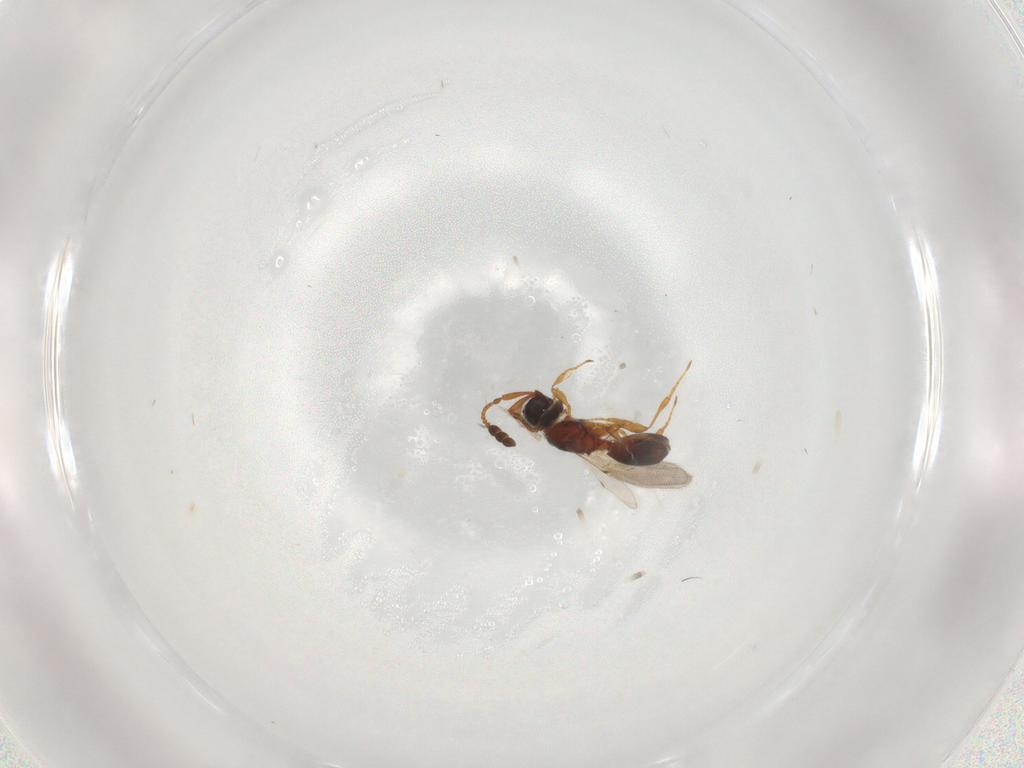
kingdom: Animalia
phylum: Arthropoda
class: Insecta
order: Hymenoptera
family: Diapriidae
